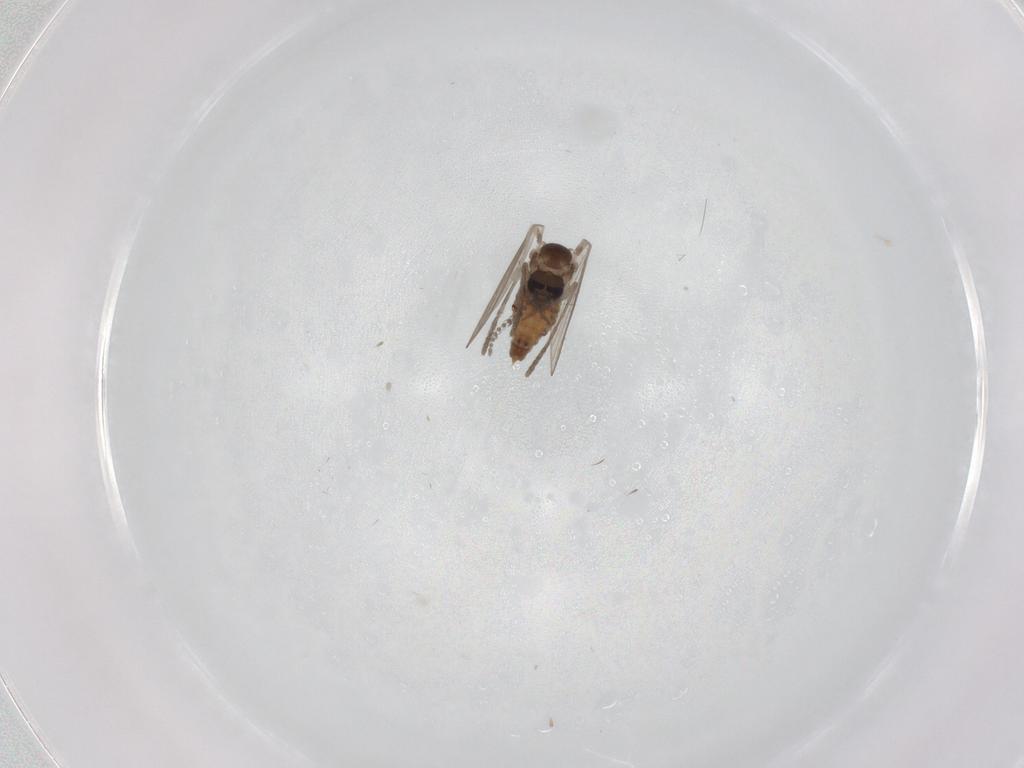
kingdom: Animalia
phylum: Arthropoda
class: Insecta
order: Diptera
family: Psychodidae
